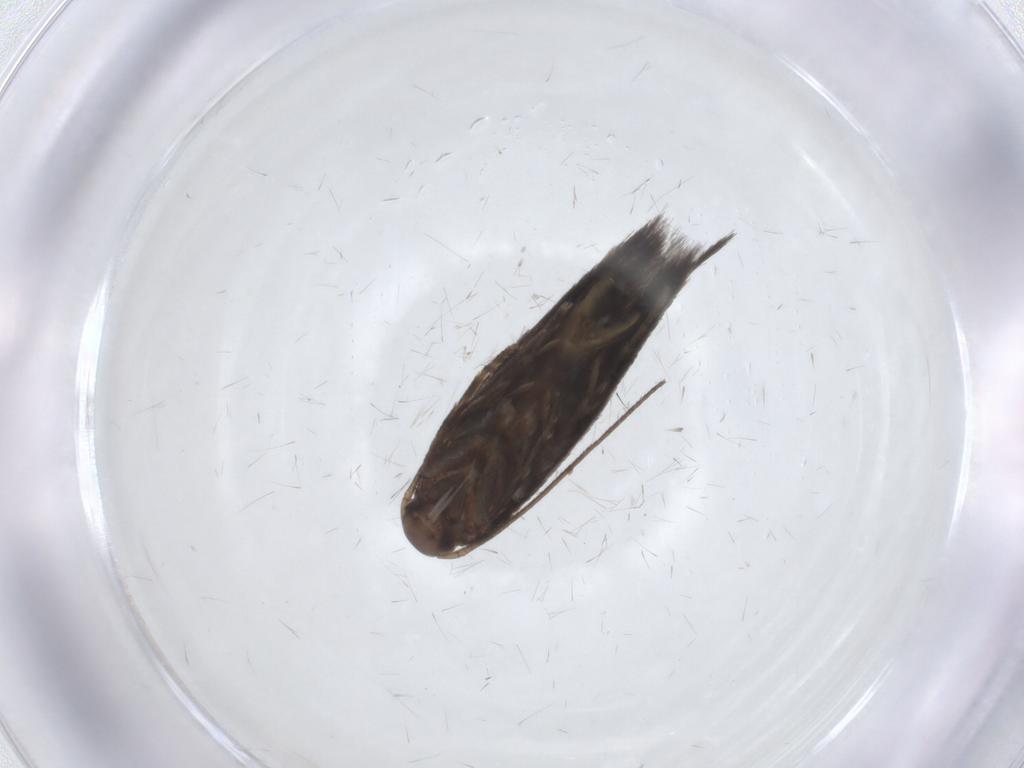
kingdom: Animalia
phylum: Arthropoda
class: Insecta
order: Lepidoptera
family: Elachistidae
